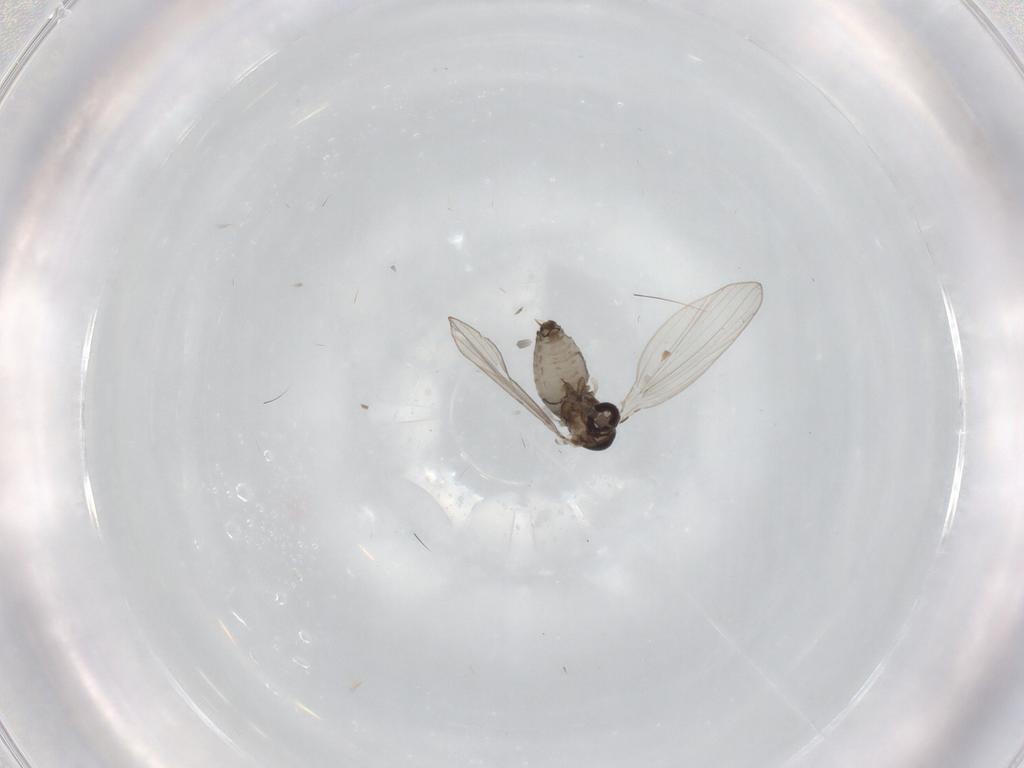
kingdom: Animalia
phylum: Arthropoda
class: Insecta
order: Diptera
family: Psychodidae
